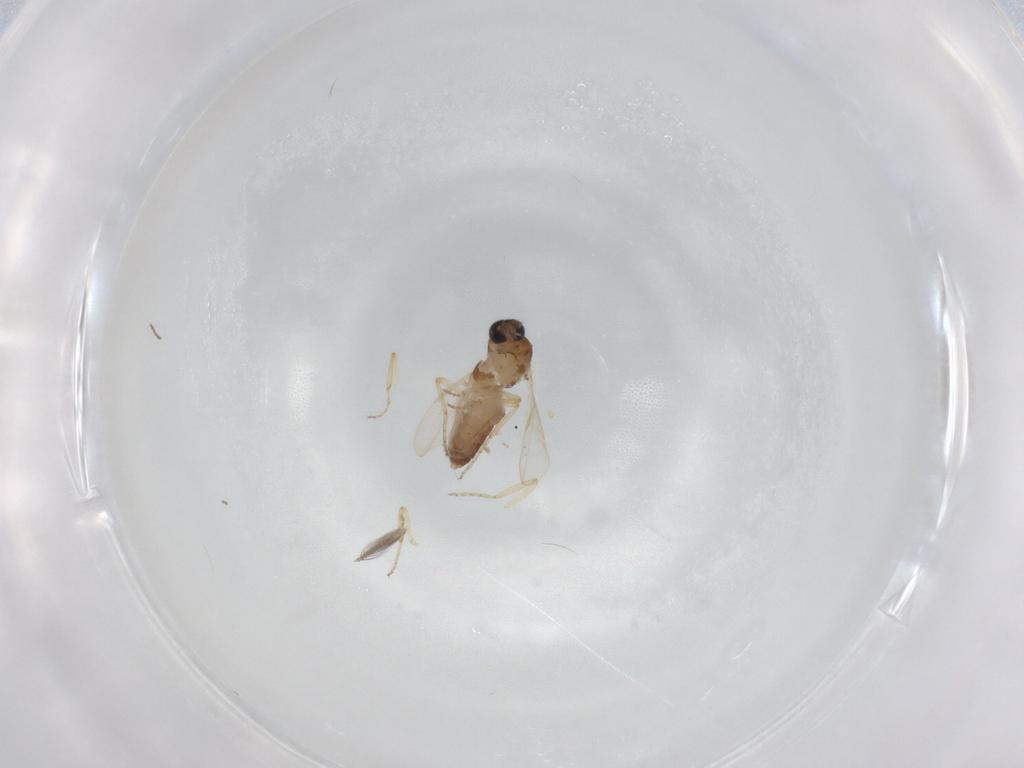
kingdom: Animalia
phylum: Arthropoda
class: Insecta
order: Diptera
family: Ceratopogonidae
